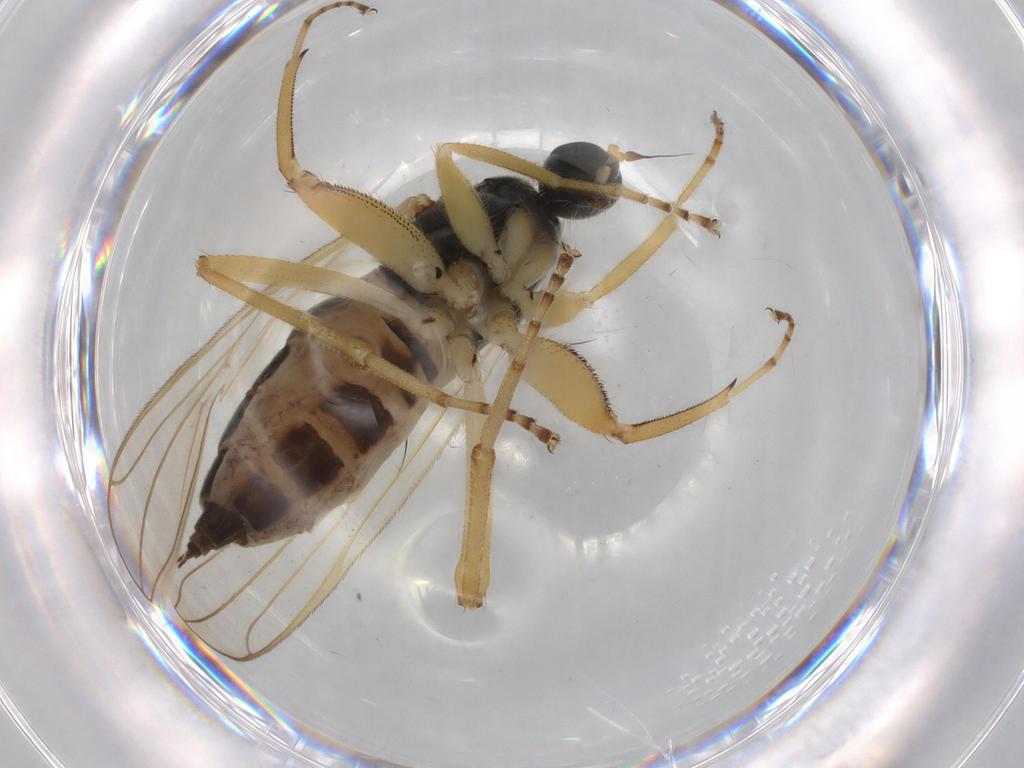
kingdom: Animalia
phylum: Arthropoda
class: Insecta
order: Diptera
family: Hybotidae
